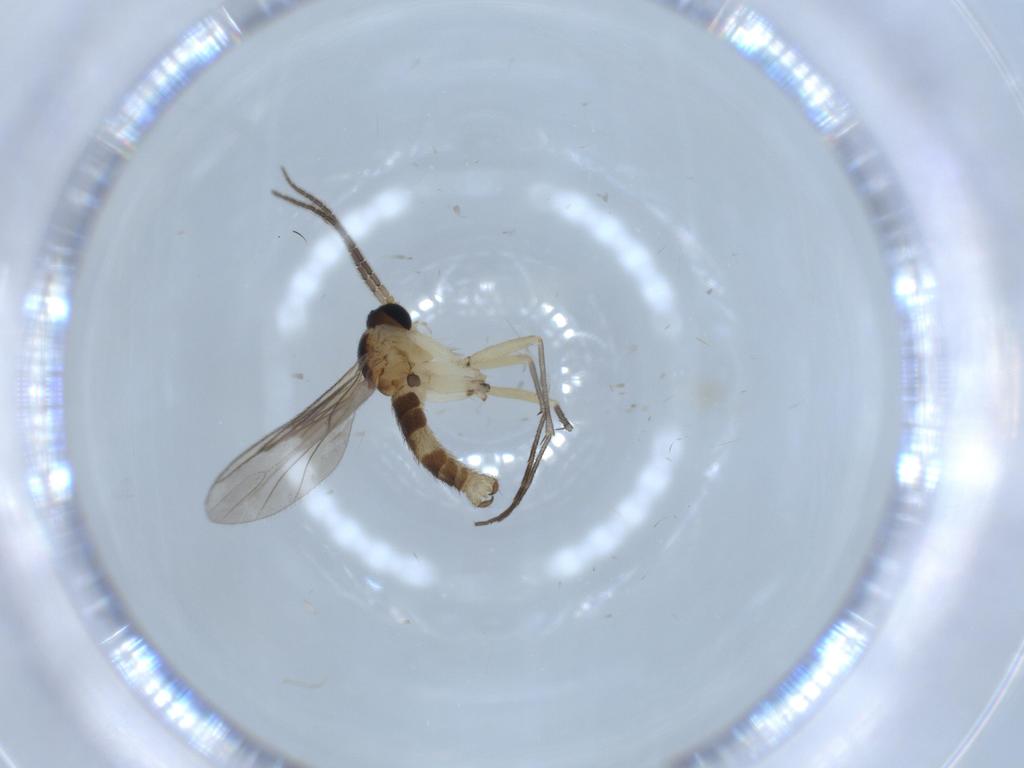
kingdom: Animalia
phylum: Arthropoda
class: Insecta
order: Diptera
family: Sciaridae
